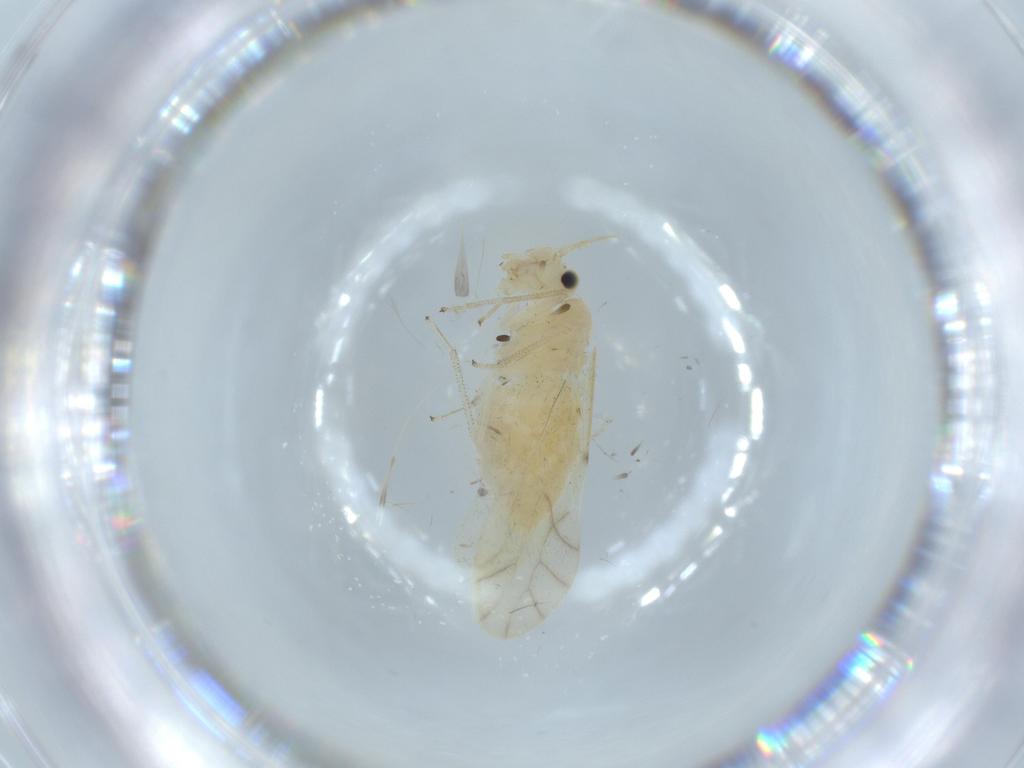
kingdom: Animalia
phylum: Arthropoda
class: Insecta
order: Psocodea
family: Caeciliusidae
